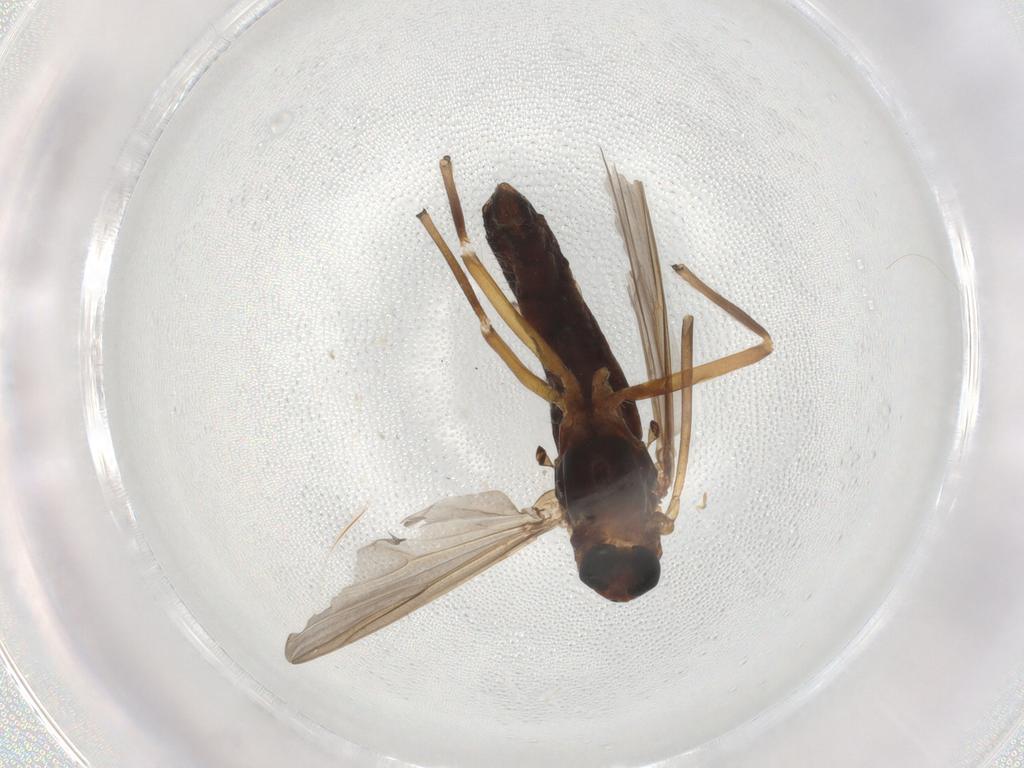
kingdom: Animalia
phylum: Arthropoda
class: Insecta
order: Diptera
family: Chironomidae
